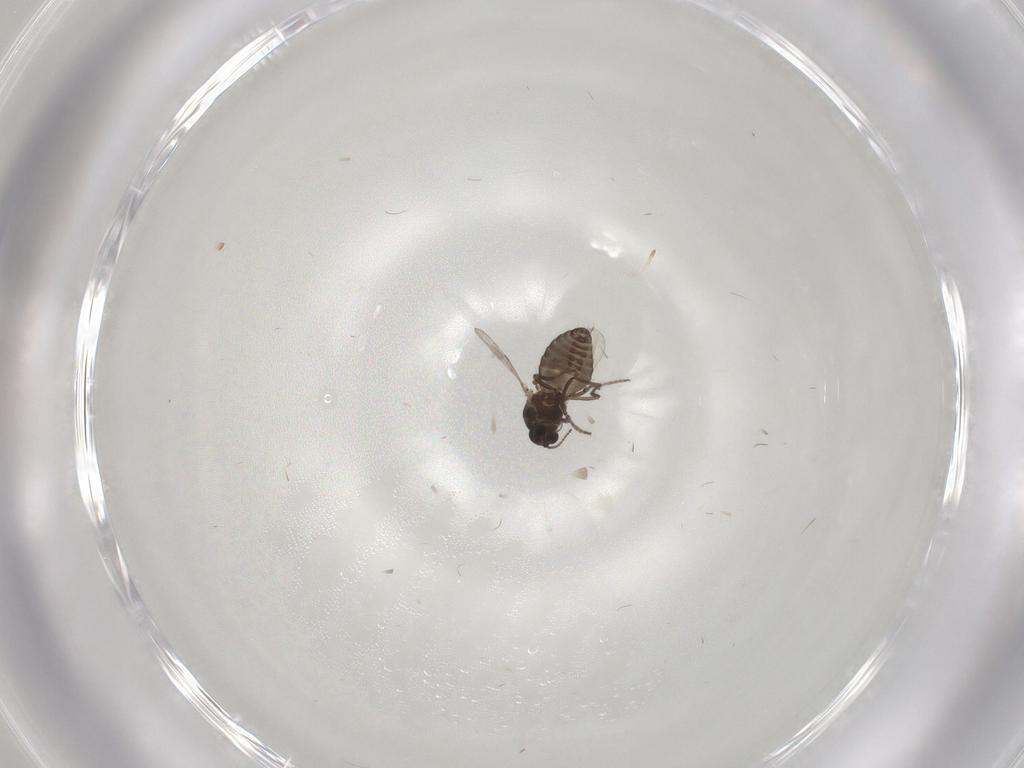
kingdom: Animalia
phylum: Arthropoda
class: Insecta
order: Diptera
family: Ceratopogonidae
